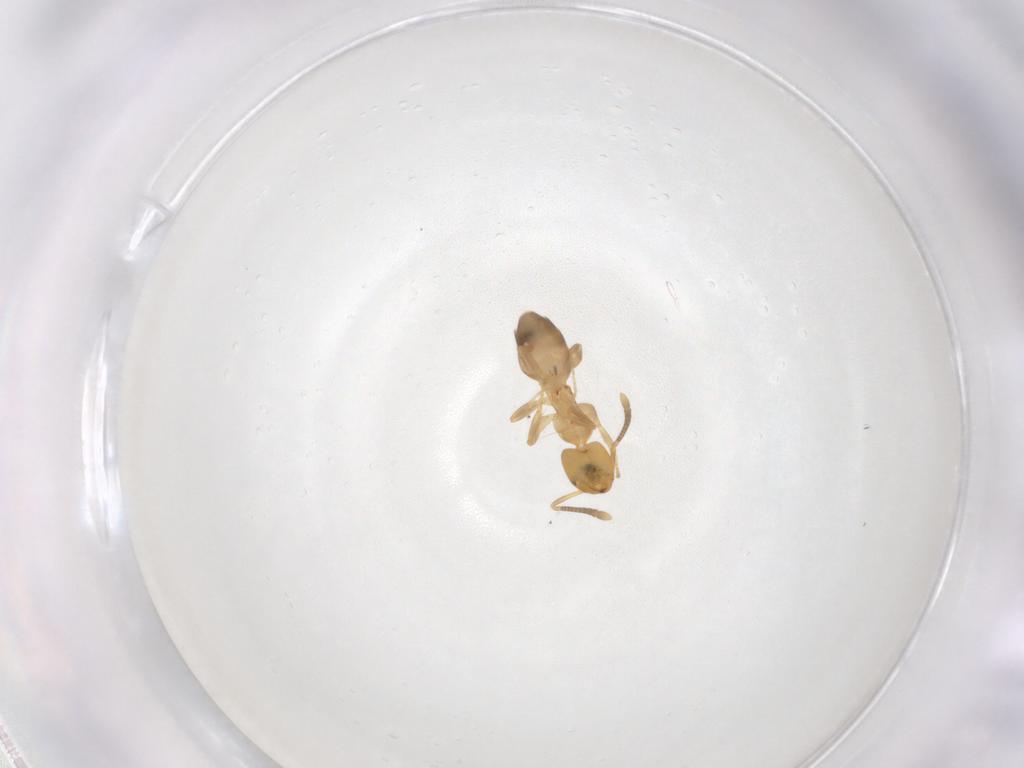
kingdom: Animalia
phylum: Arthropoda
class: Insecta
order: Hymenoptera
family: Formicidae
